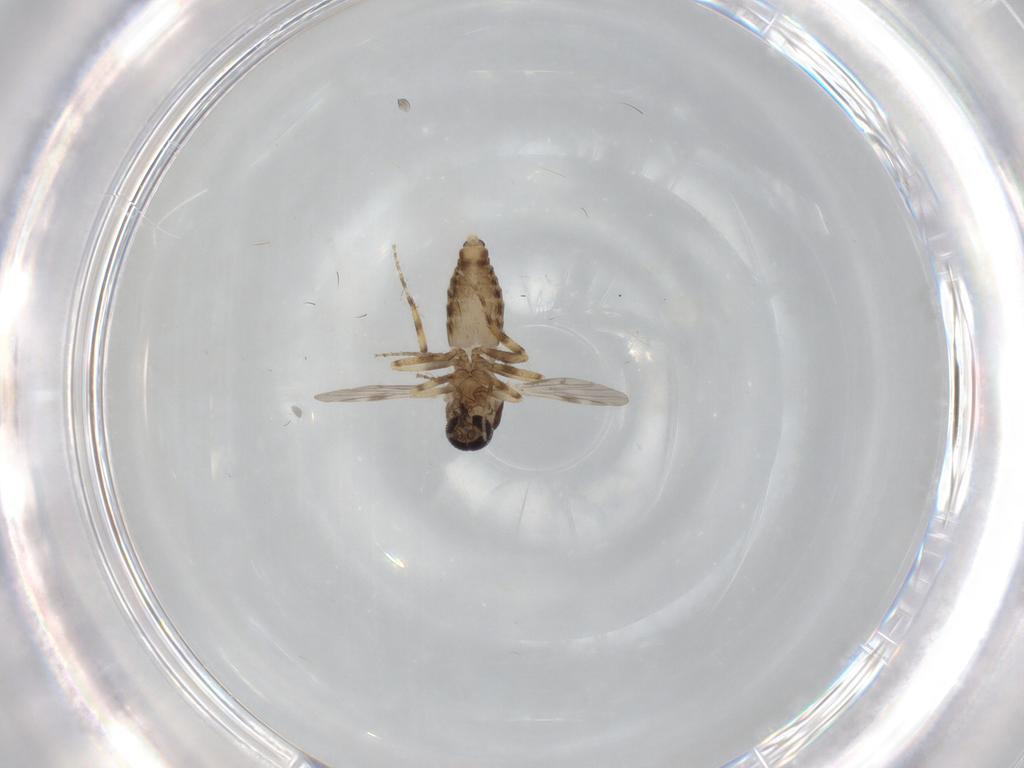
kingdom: Animalia
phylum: Arthropoda
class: Insecta
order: Diptera
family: Ceratopogonidae
